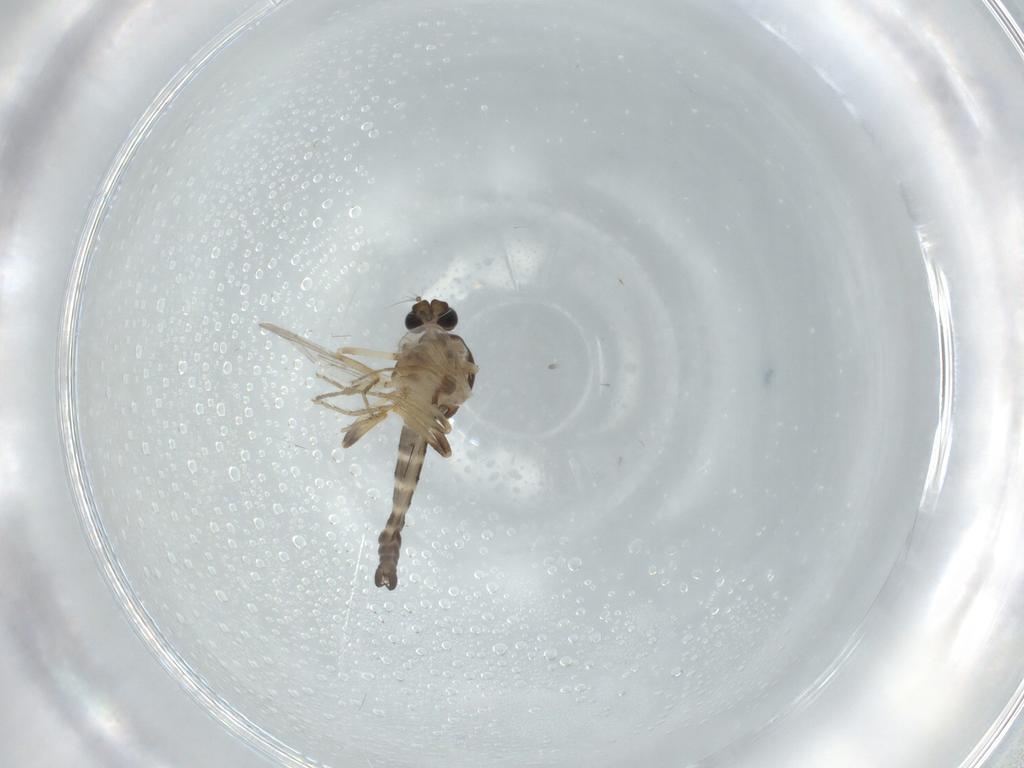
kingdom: Animalia
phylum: Arthropoda
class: Insecta
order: Diptera
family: Ceratopogonidae
